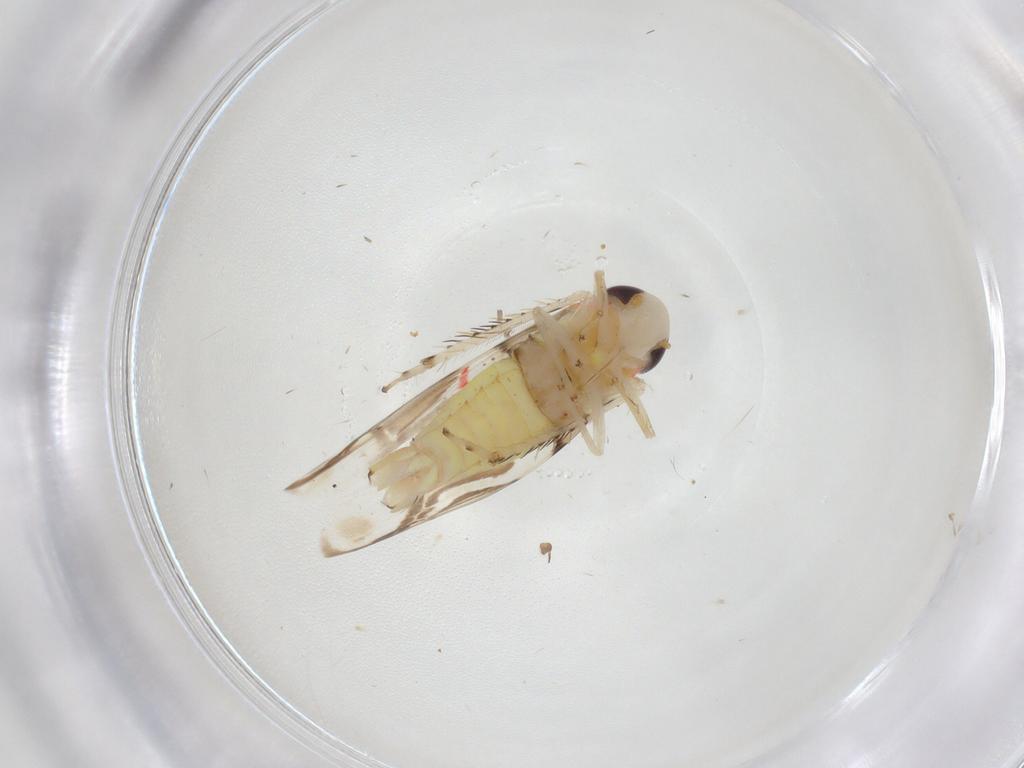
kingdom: Animalia
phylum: Arthropoda
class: Insecta
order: Hemiptera
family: Cicadellidae
